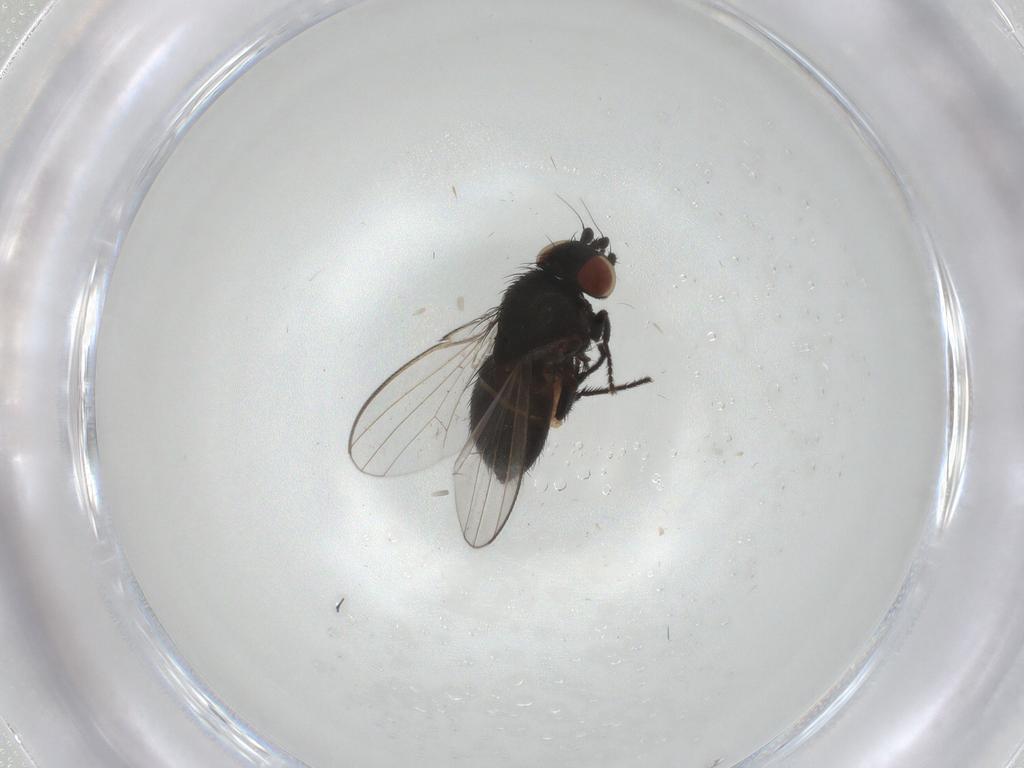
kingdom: Animalia
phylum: Arthropoda
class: Insecta
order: Diptera
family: Milichiidae
